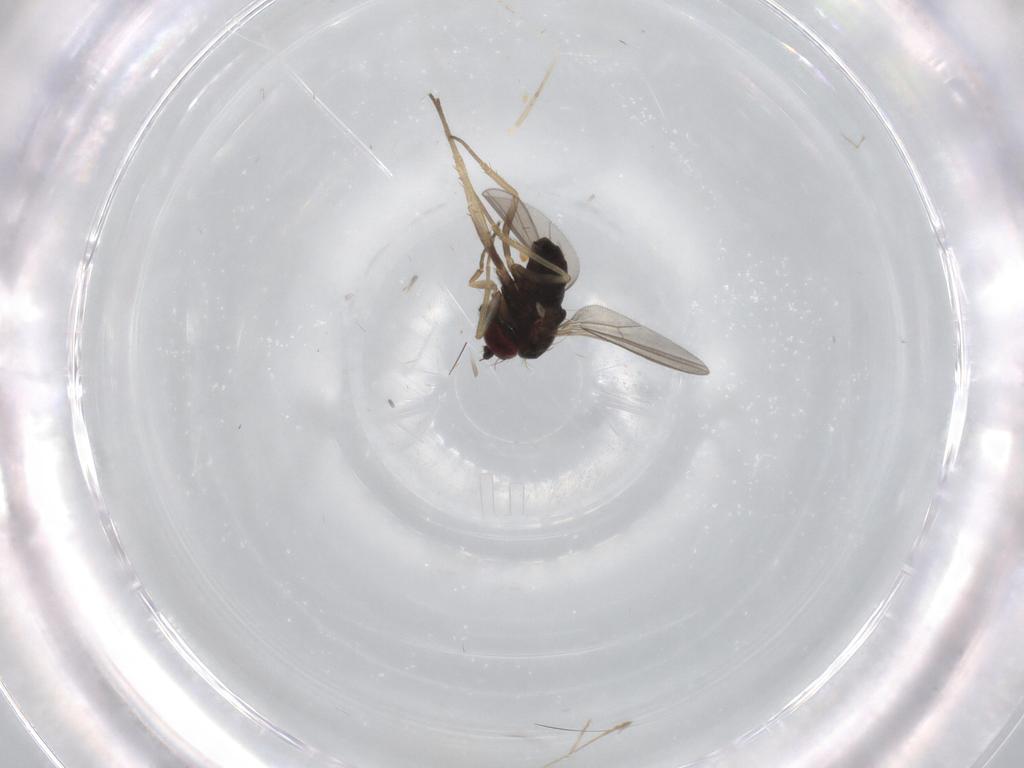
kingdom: Animalia
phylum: Arthropoda
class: Insecta
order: Diptera
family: Cecidomyiidae
